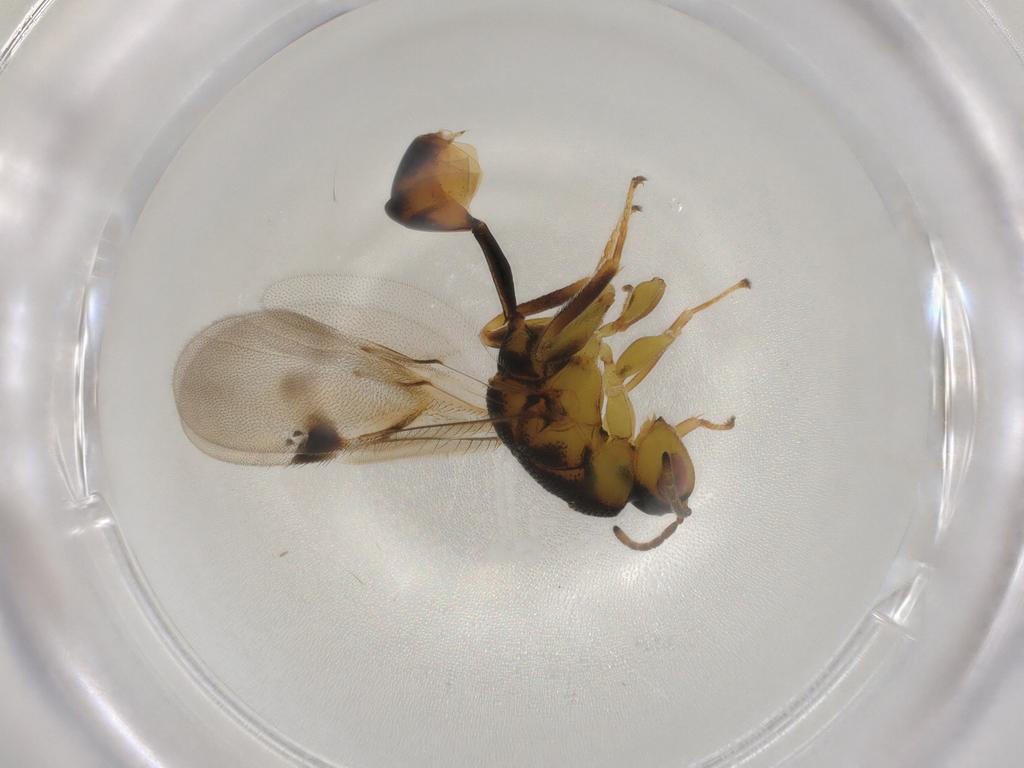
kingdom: Animalia
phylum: Arthropoda
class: Insecta
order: Hymenoptera
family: Eurytomidae
